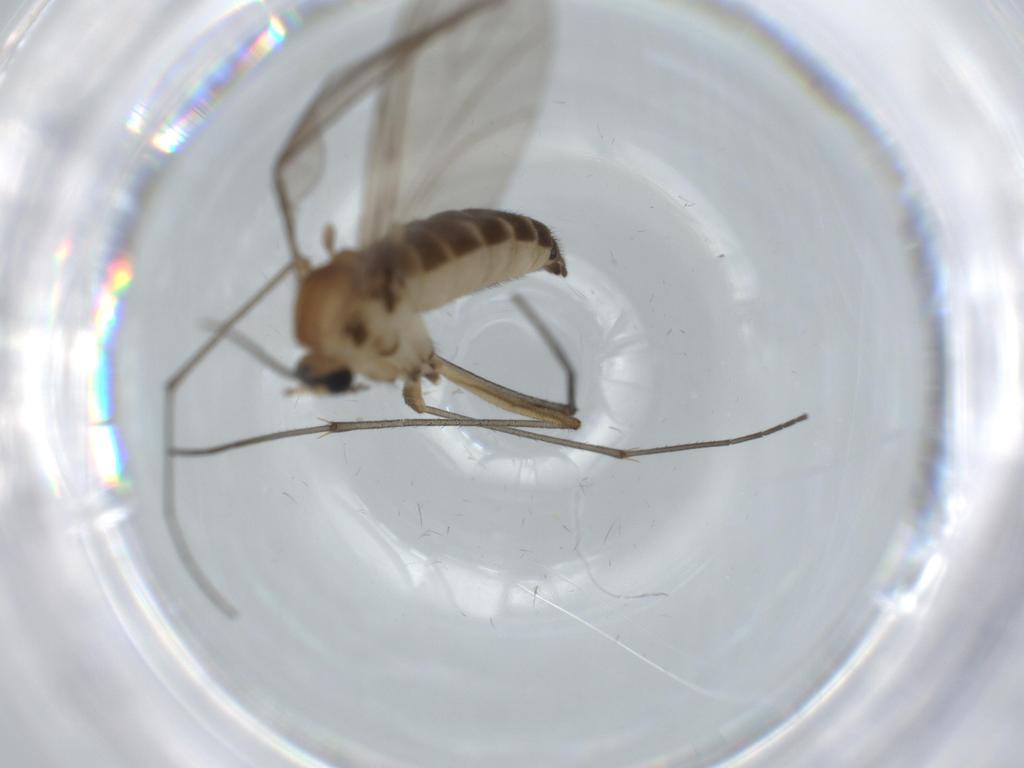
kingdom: Animalia
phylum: Arthropoda
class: Insecta
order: Diptera
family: Sciaridae
